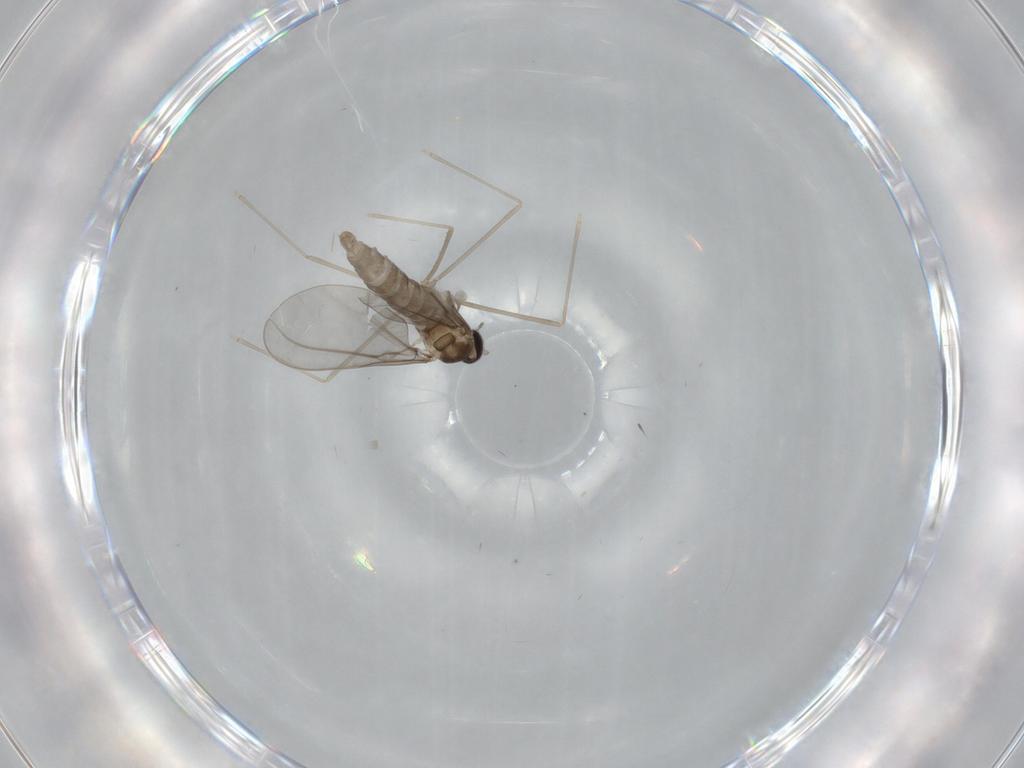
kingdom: Animalia
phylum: Arthropoda
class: Insecta
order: Diptera
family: Cecidomyiidae
